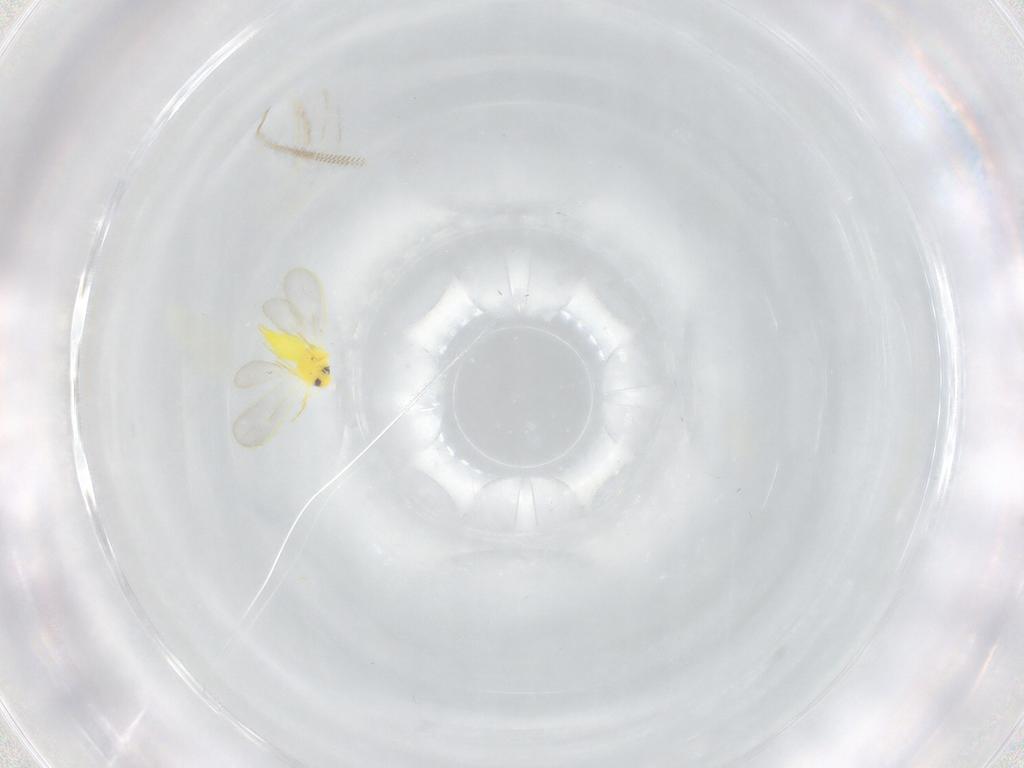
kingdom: Animalia
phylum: Arthropoda
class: Insecta
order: Hemiptera
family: Aleyrodidae
